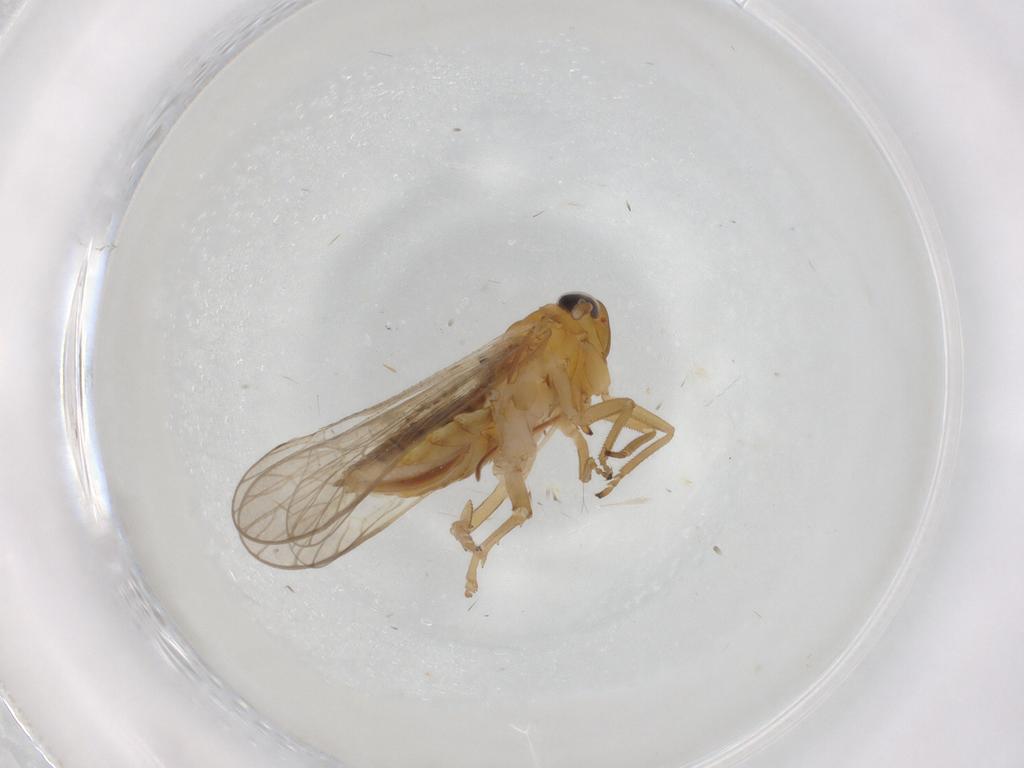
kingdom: Animalia
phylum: Arthropoda
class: Insecta
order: Hemiptera
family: Delphacidae
